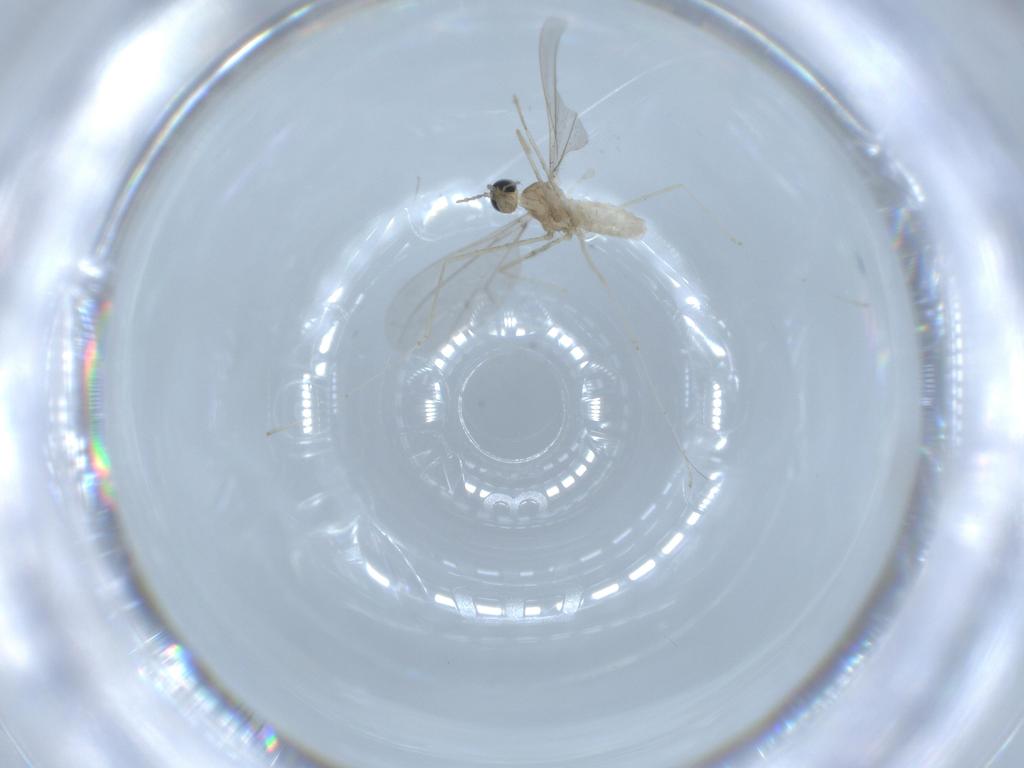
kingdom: Animalia
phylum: Arthropoda
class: Insecta
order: Diptera
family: Cecidomyiidae
